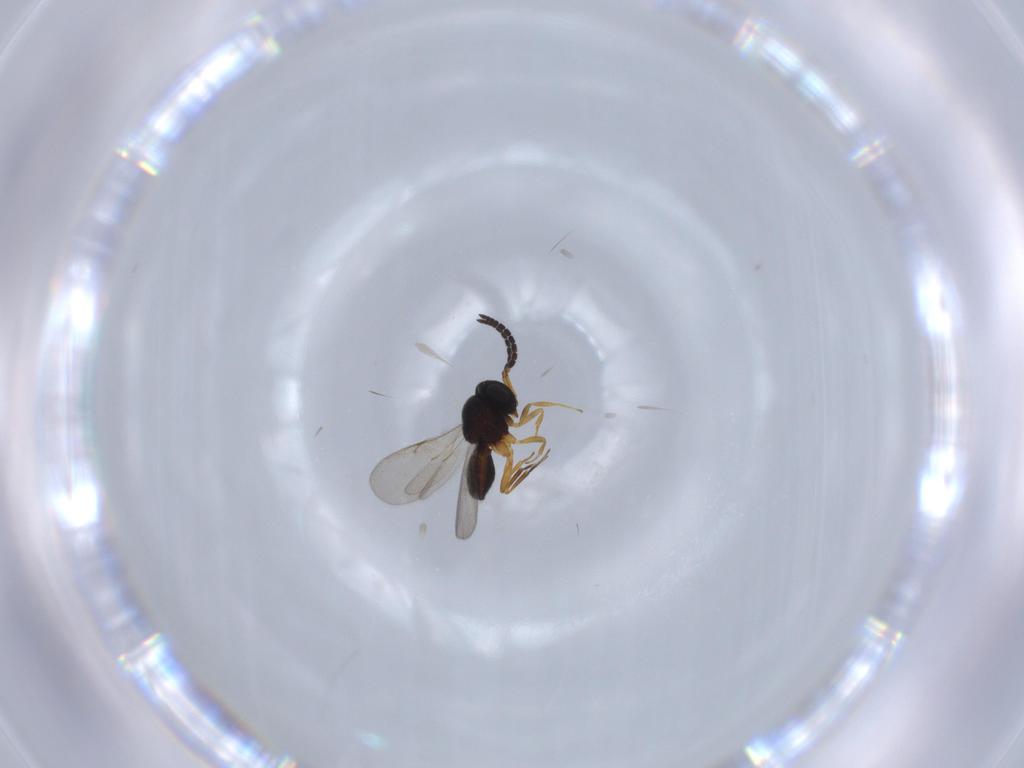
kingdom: Animalia
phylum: Arthropoda
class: Insecta
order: Coleoptera
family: Curculionidae
